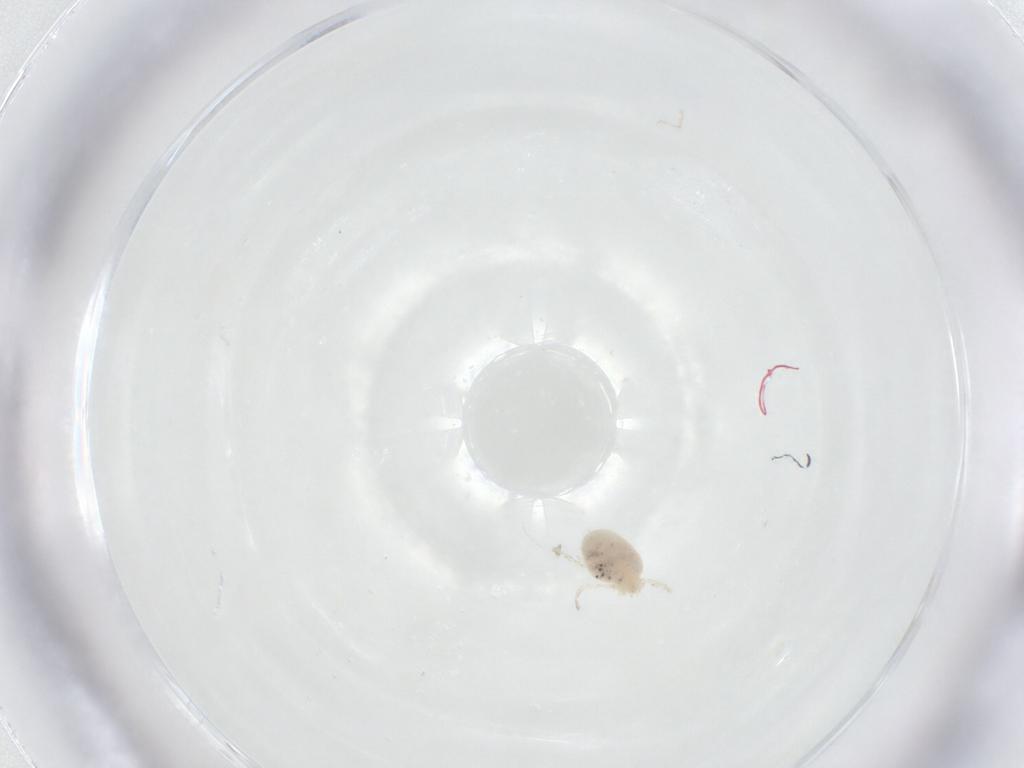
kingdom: Animalia
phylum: Arthropoda
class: Arachnida
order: Trombidiformes
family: Smarididae
